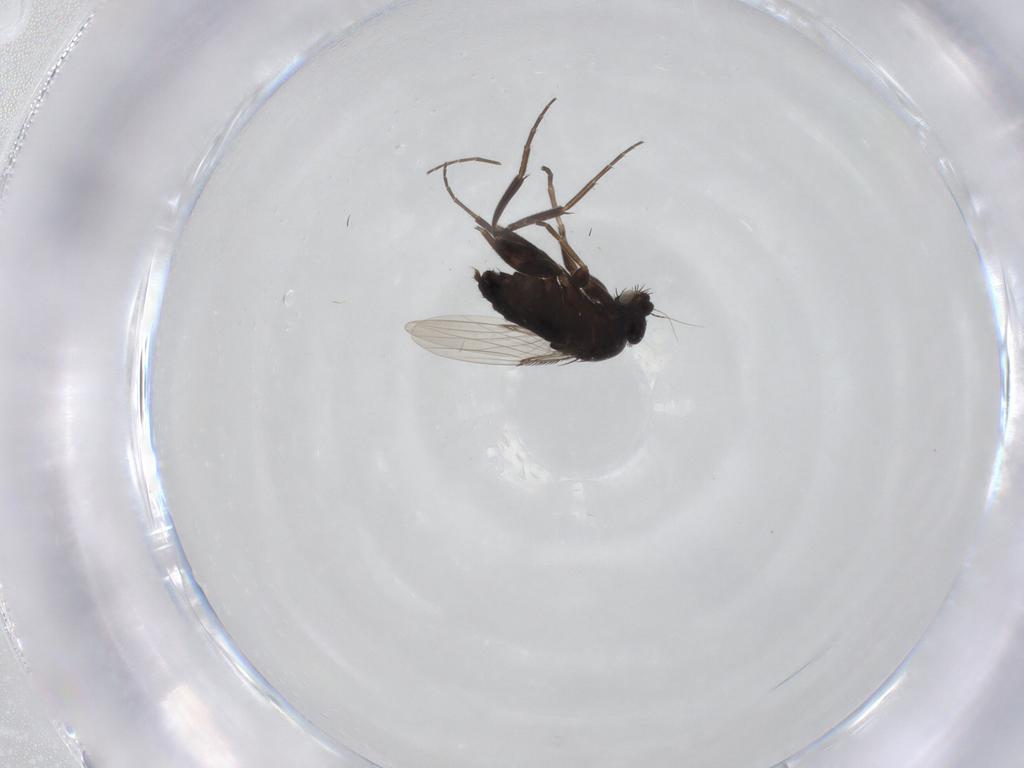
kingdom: Animalia
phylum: Arthropoda
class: Insecta
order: Diptera
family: Phoridae
